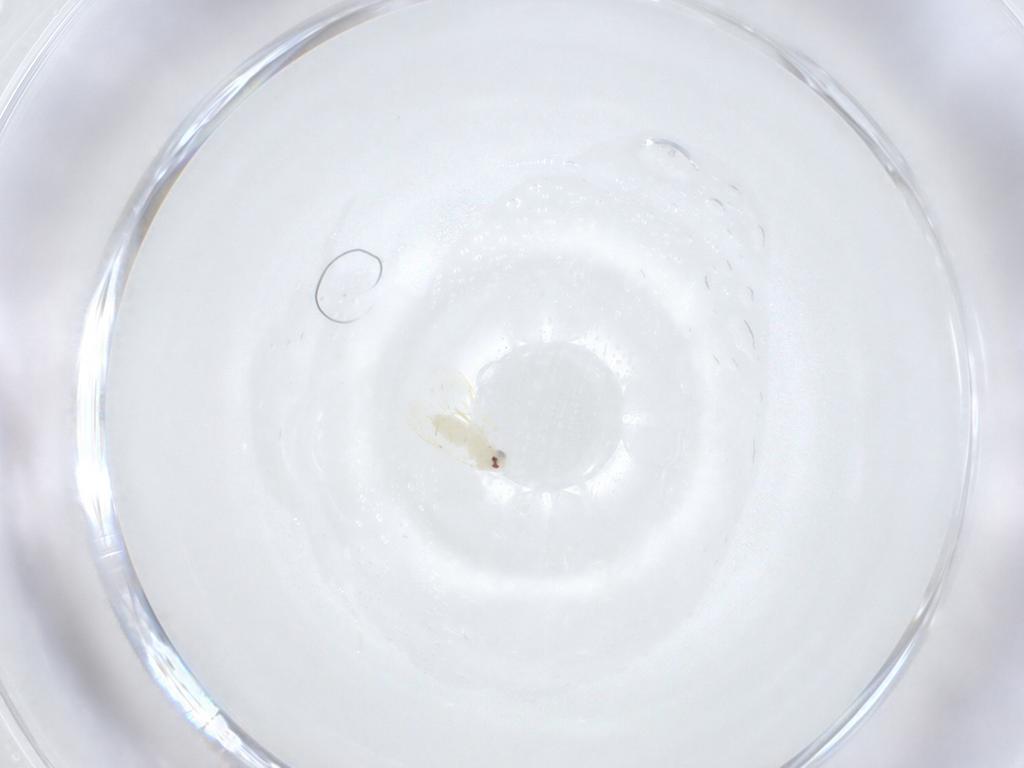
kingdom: Animalia
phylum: Arthropoda
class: Insecta
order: Hemiptera
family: Aleyrodidae
